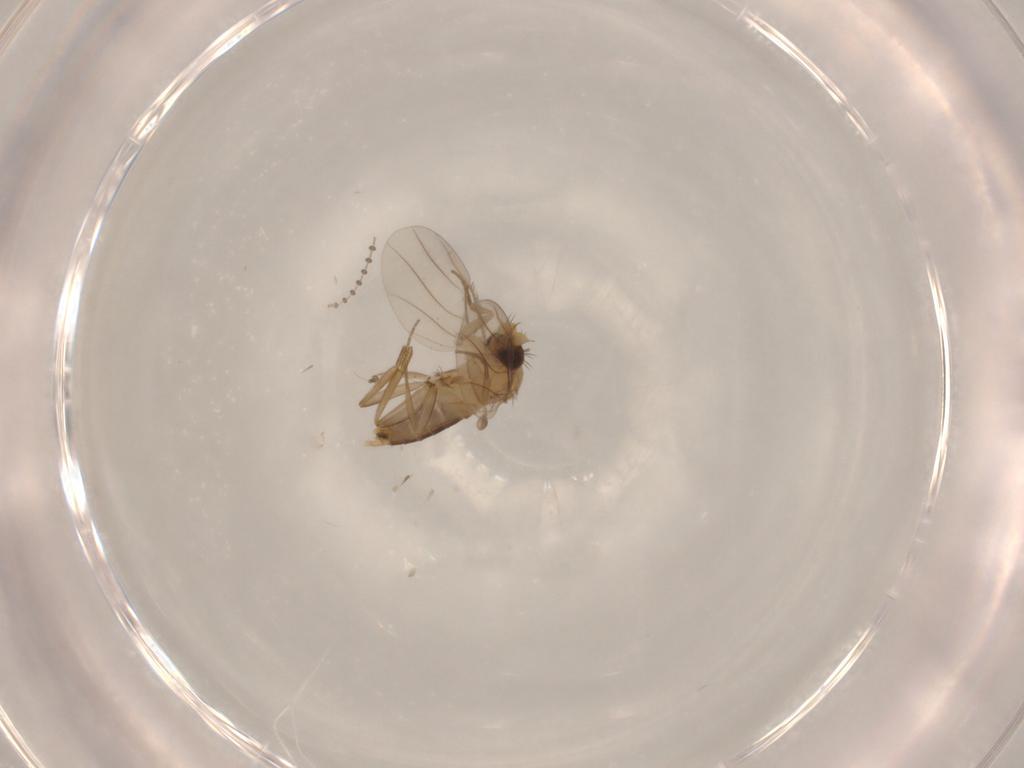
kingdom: Animalia
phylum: Arthropoda
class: Insecta
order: Diptera
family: Phoridae
